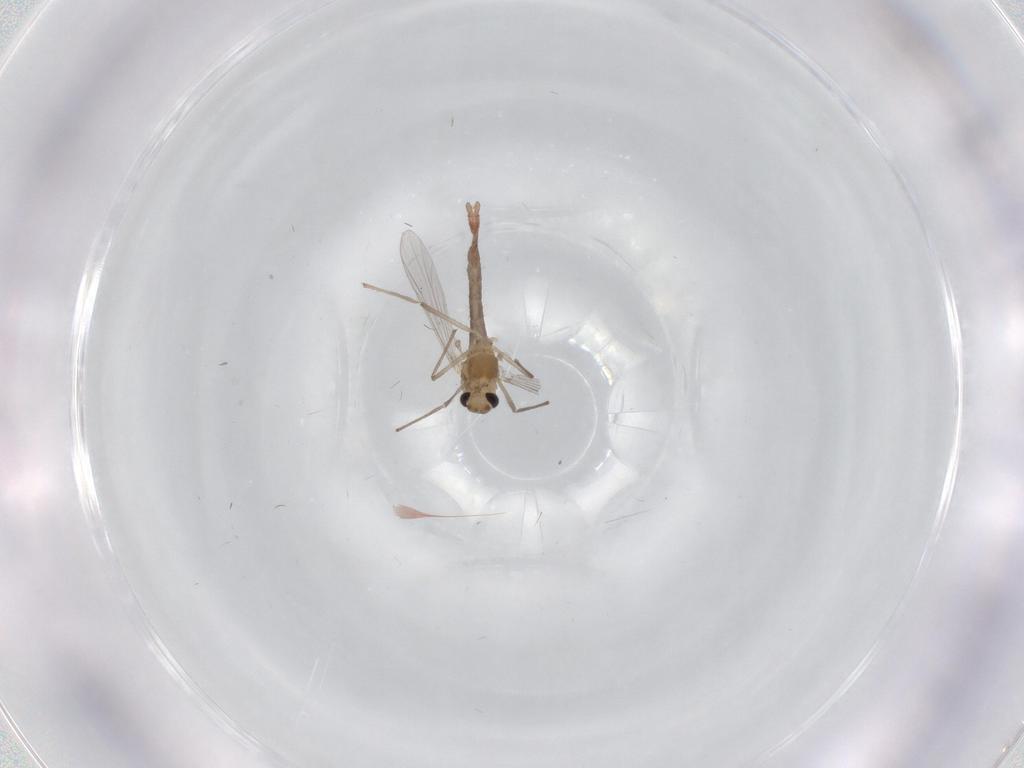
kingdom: Animalia
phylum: Arthropoda
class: Insecta
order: Diptera
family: Chironomidae
